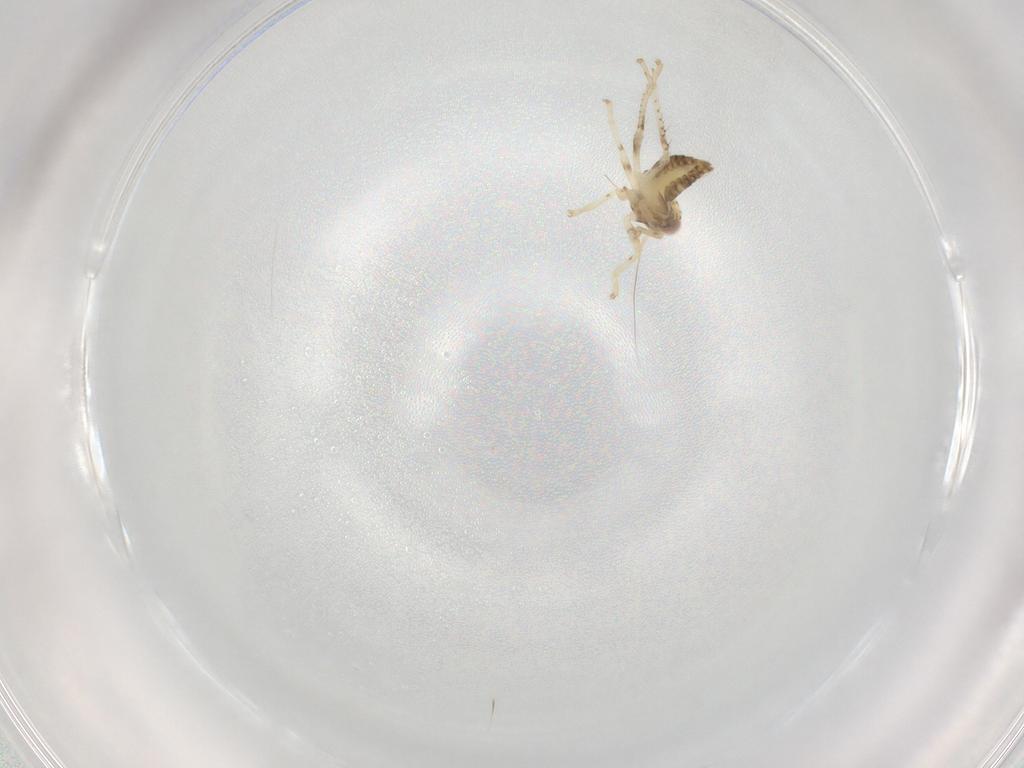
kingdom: Animalia
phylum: Arthropoda
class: Insecta
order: Hemiptera
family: Cicadellidae
